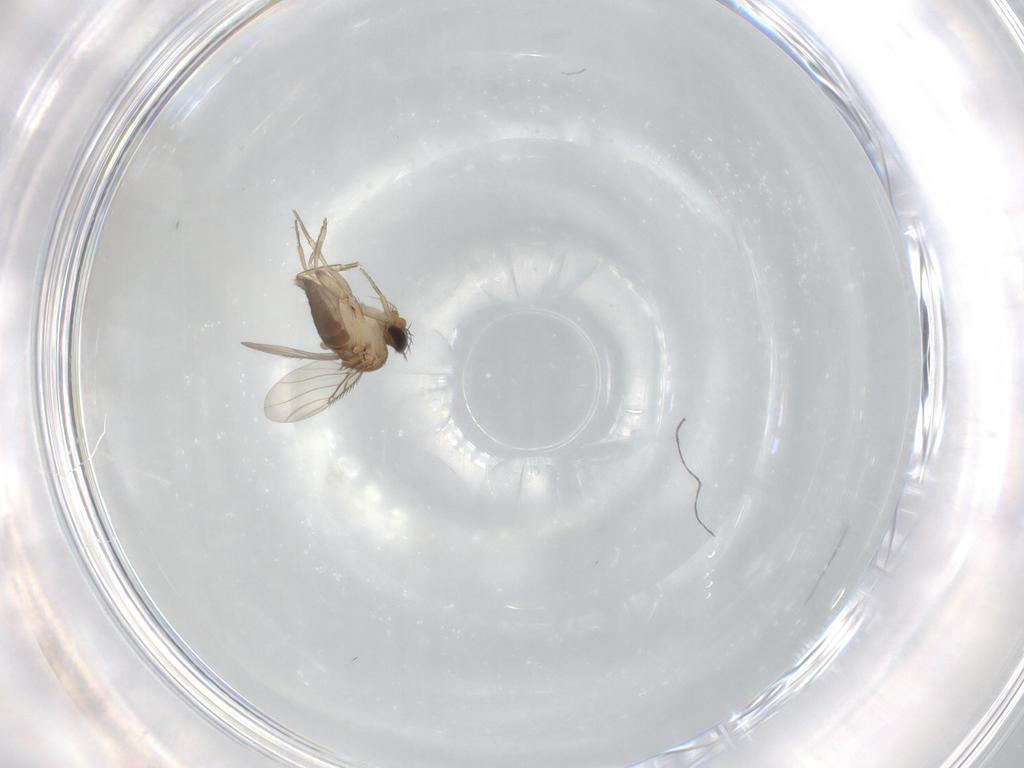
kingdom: Animalia
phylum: Arthropoda
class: Insecta
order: Diptera
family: Phoridae
